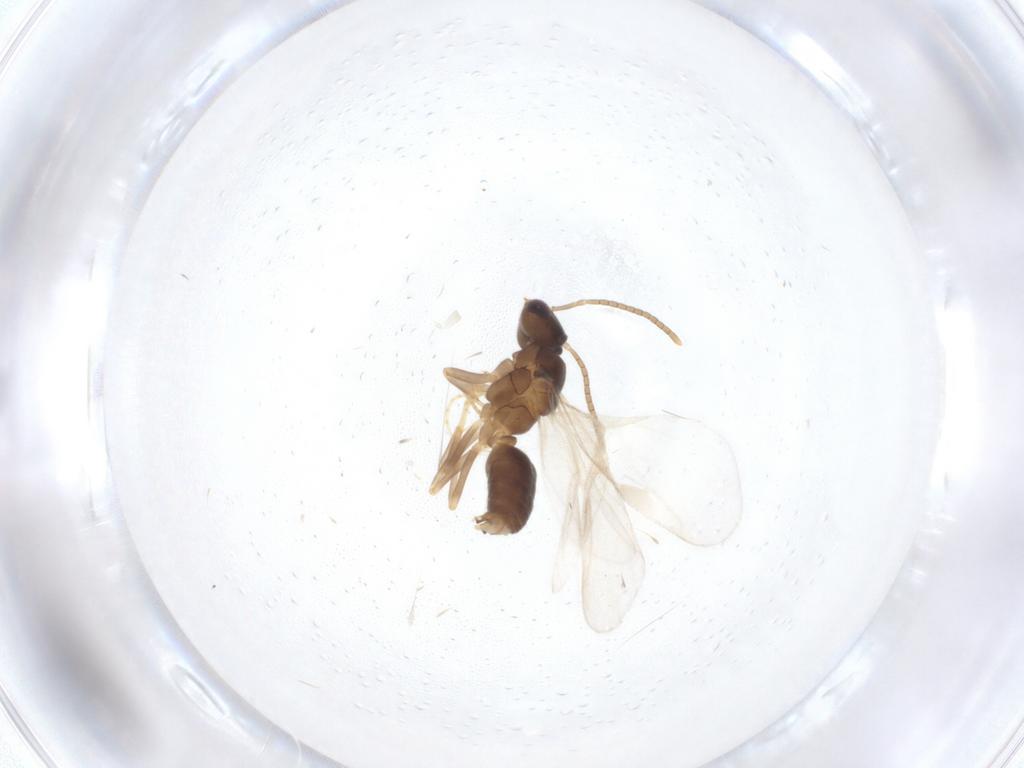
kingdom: Animalia
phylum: Arthropoda
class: Insecta
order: Hymenoptera
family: Formicidae
